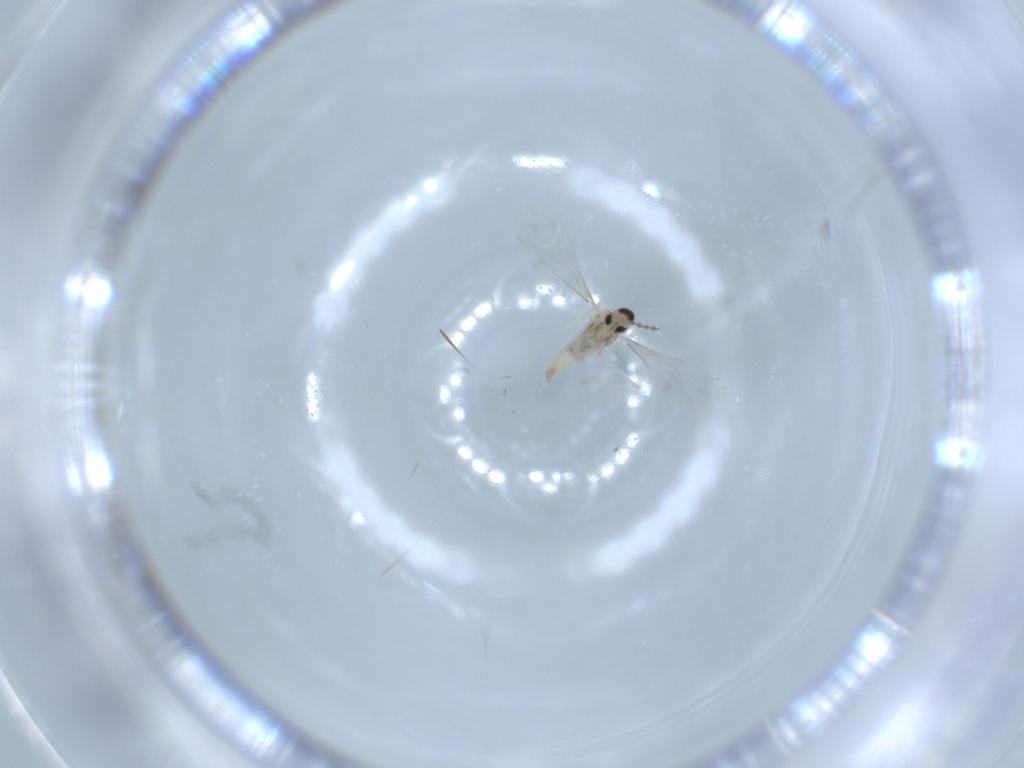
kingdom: Animalia
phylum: Arthropoda
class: Insecta
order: Diptera
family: Cecidomyiidae
